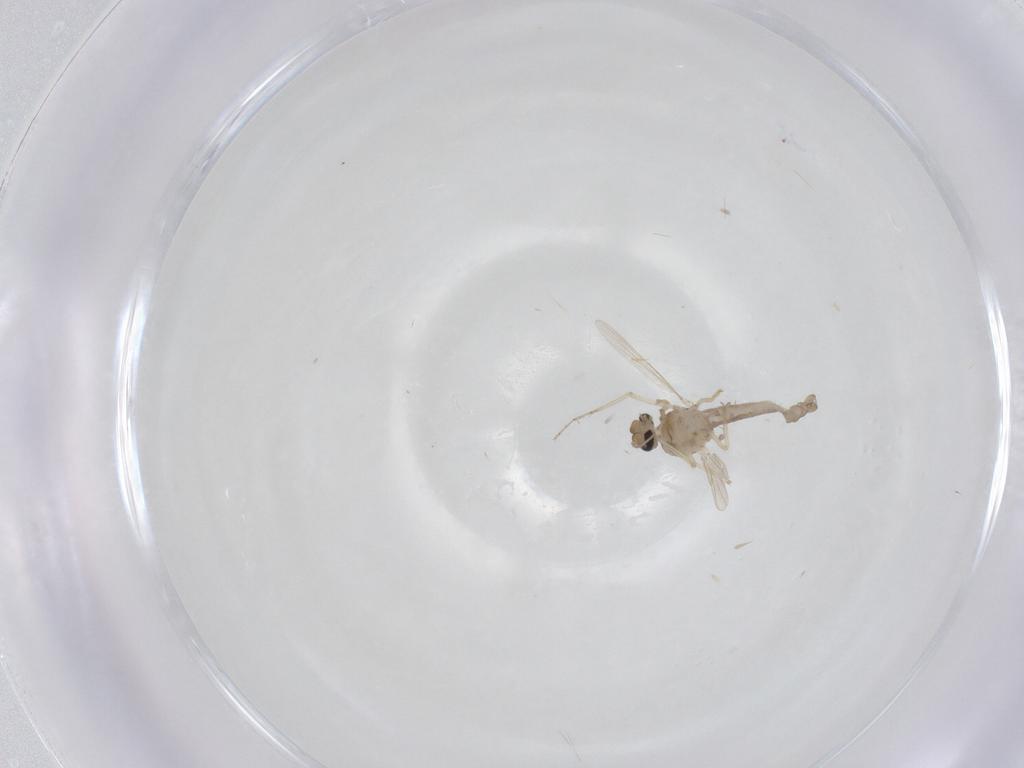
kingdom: Animalia
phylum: Arthropoda
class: Insecta
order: Diptera
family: Ceratopogonidae
